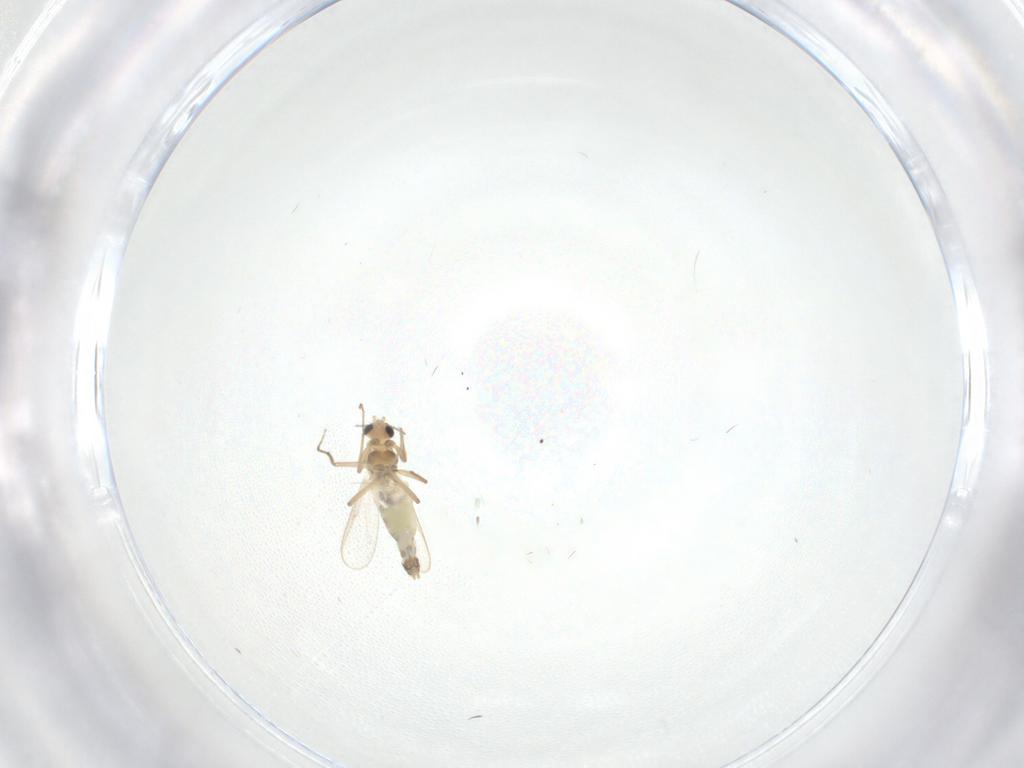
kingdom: Animalia
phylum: Arthropoda
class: Insecta
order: Diptera
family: Chironomidae
